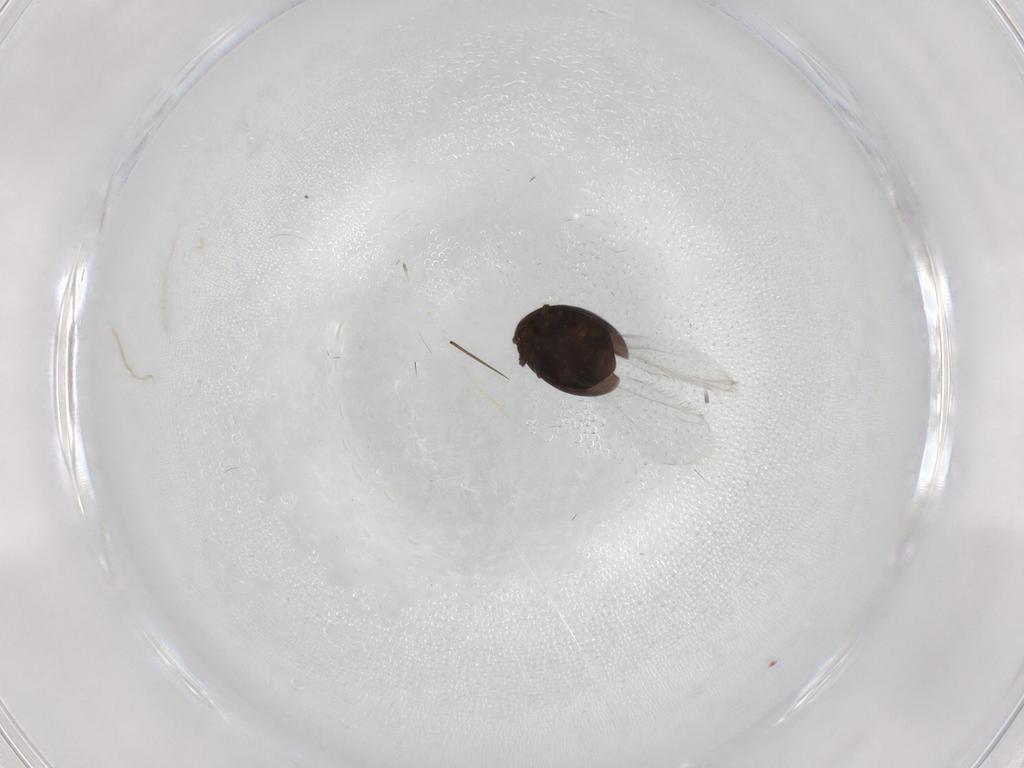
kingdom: Animalia
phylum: Arthropoda
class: Insecta
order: Coleoptera
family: Corylophidae
